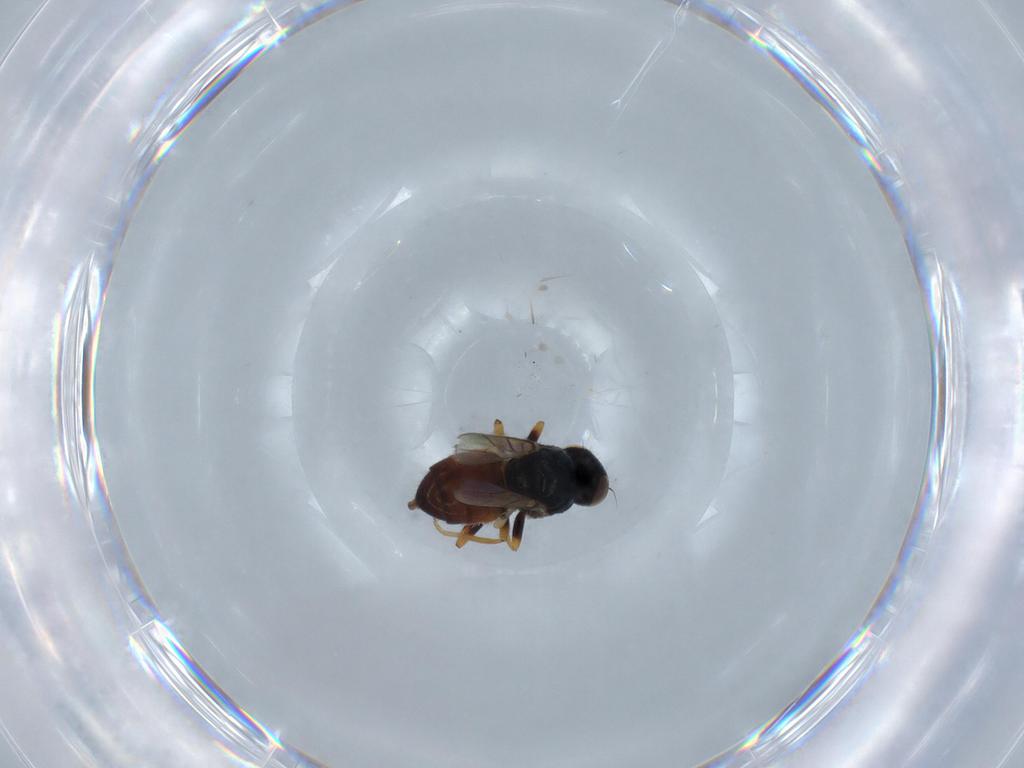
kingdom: Animalia
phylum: Arthropoda
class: Insecta
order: Diptera
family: Chloropidae
